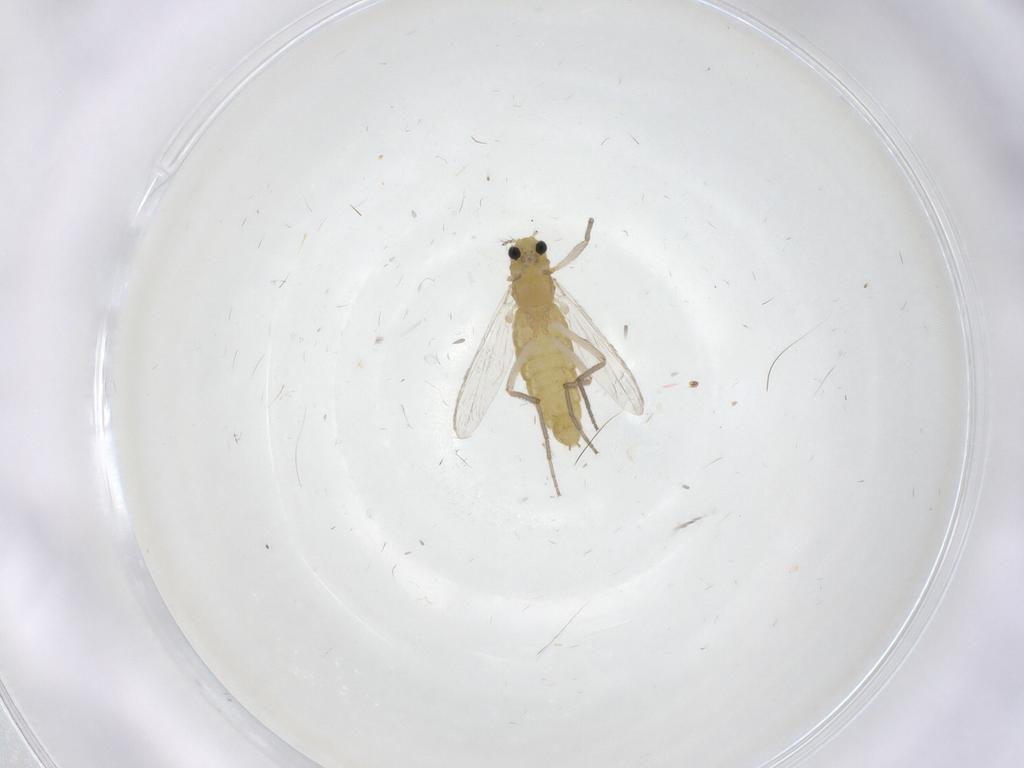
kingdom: Animalia
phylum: Arthropoda
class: Insecta
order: Diptera
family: Chironomidae
